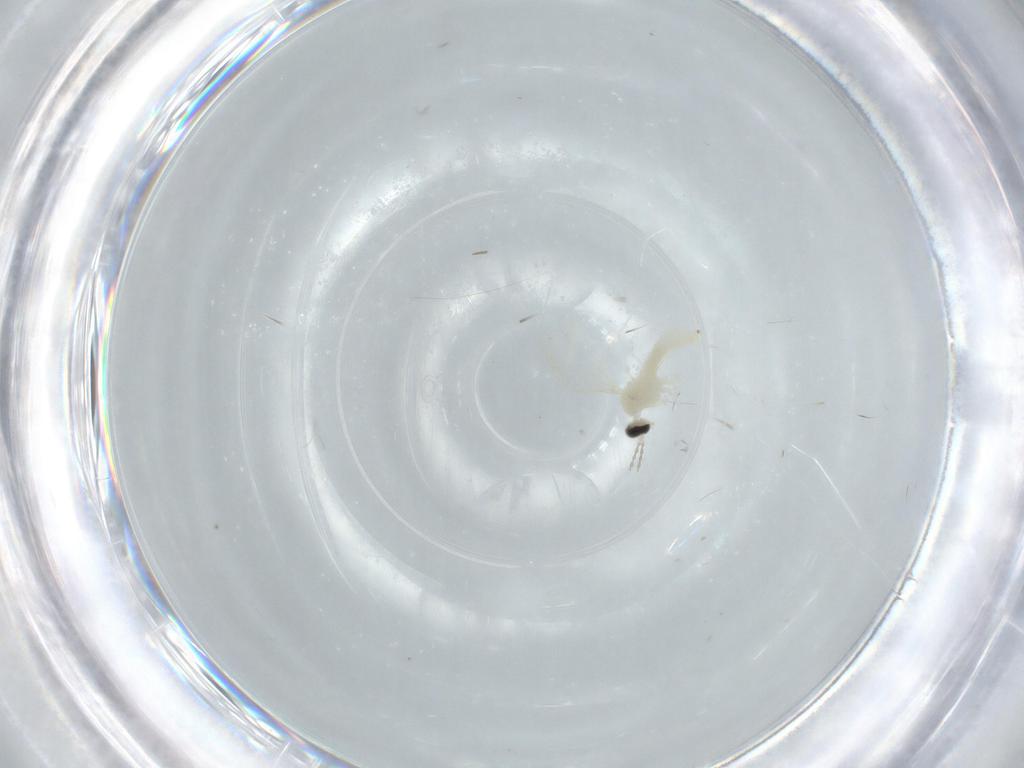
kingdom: Animalia
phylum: Arthropoda
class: Insecta
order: Diptera
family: Cecidomyiidae
